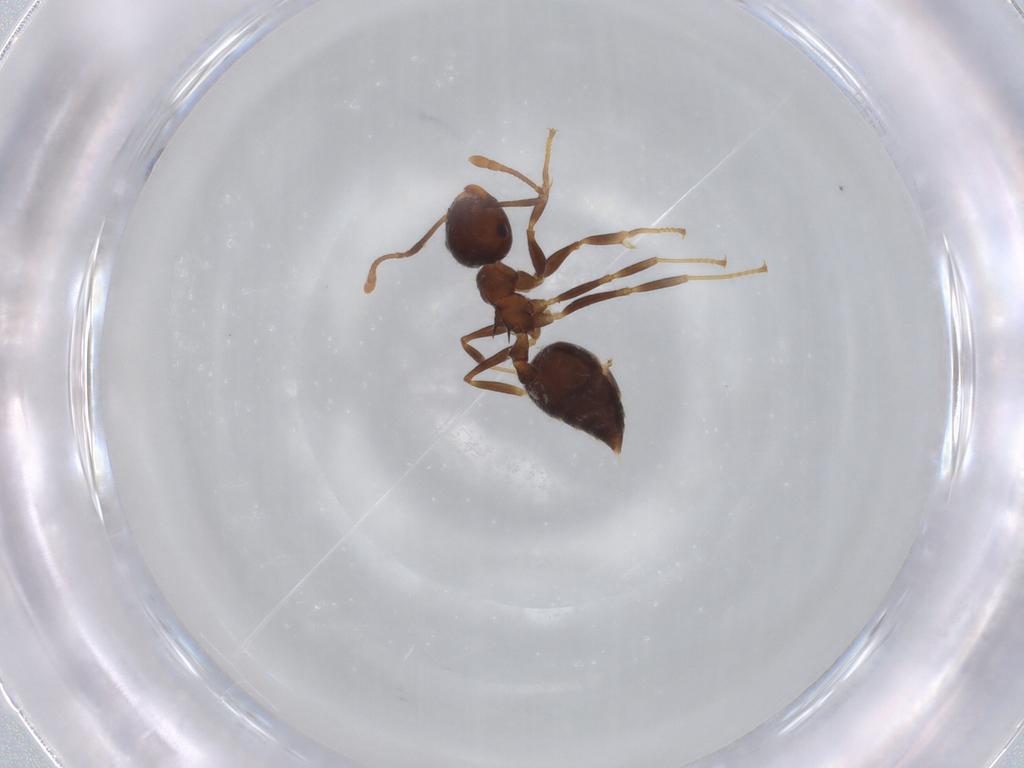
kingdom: Animalia
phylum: Arthropoda
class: Insecta
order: Hymenoptera
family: Formicidae
